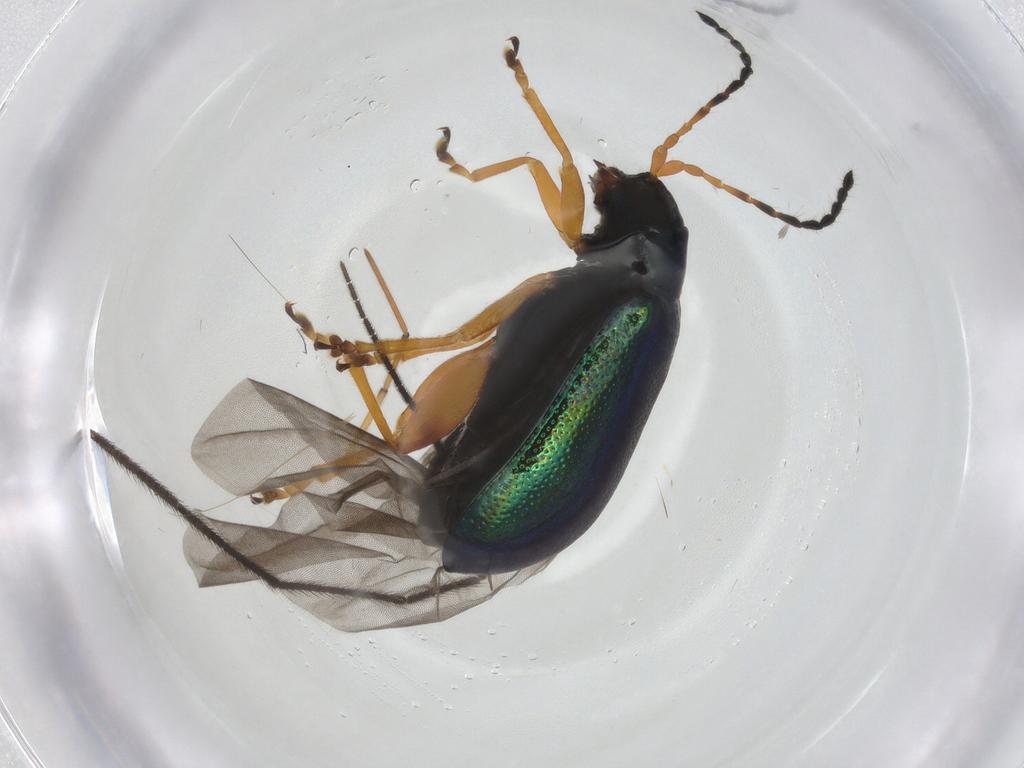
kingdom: Animalia
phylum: Arthropoda
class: Insecta
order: Coleoptera
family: Chrysomelidae
